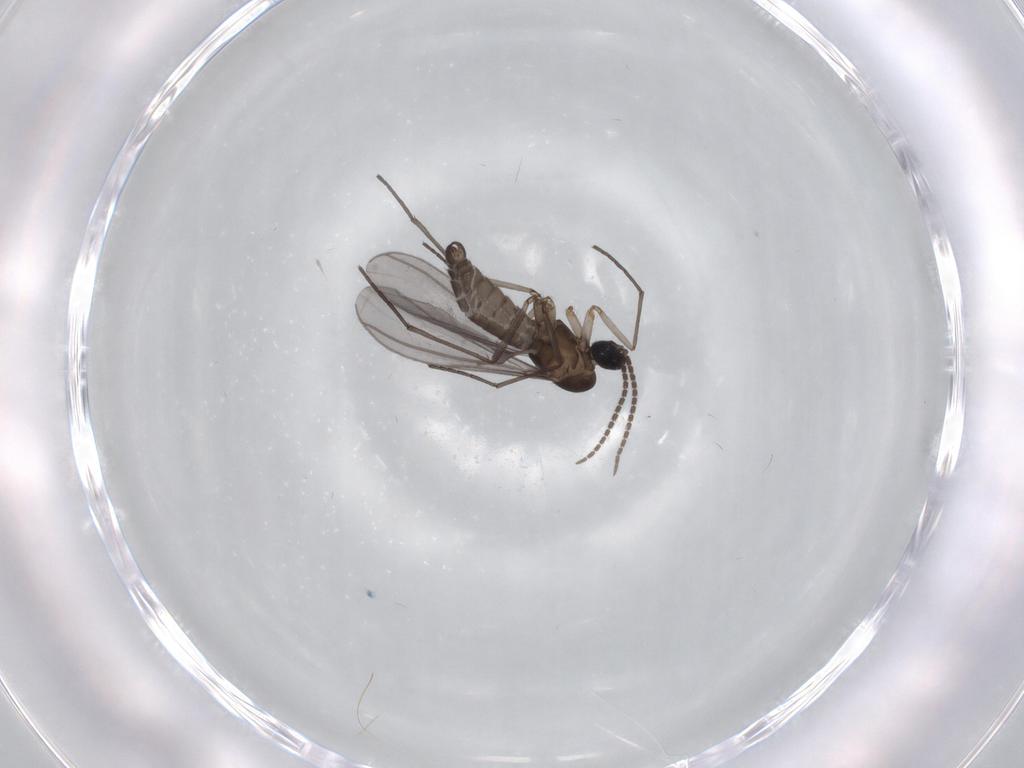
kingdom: Animalia
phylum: Arthropoda
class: Insecta
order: Diptera
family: Sciaridae
